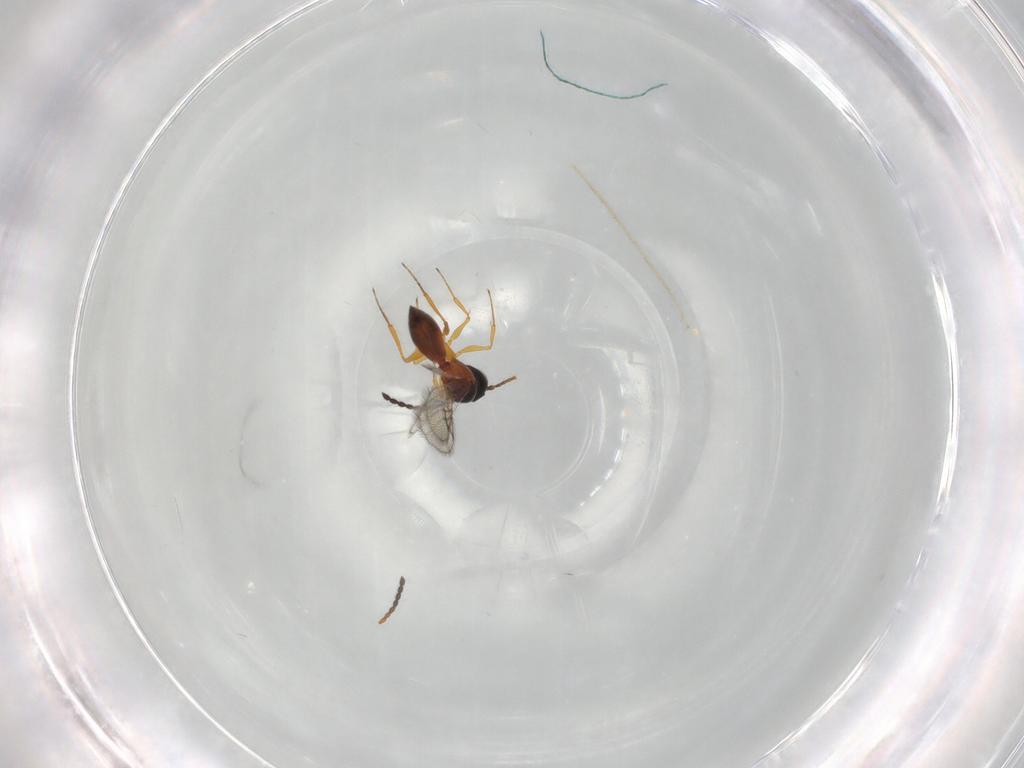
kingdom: Animalia
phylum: Arthropoda
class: Insecta
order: Hymenoptera
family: Figitidae
